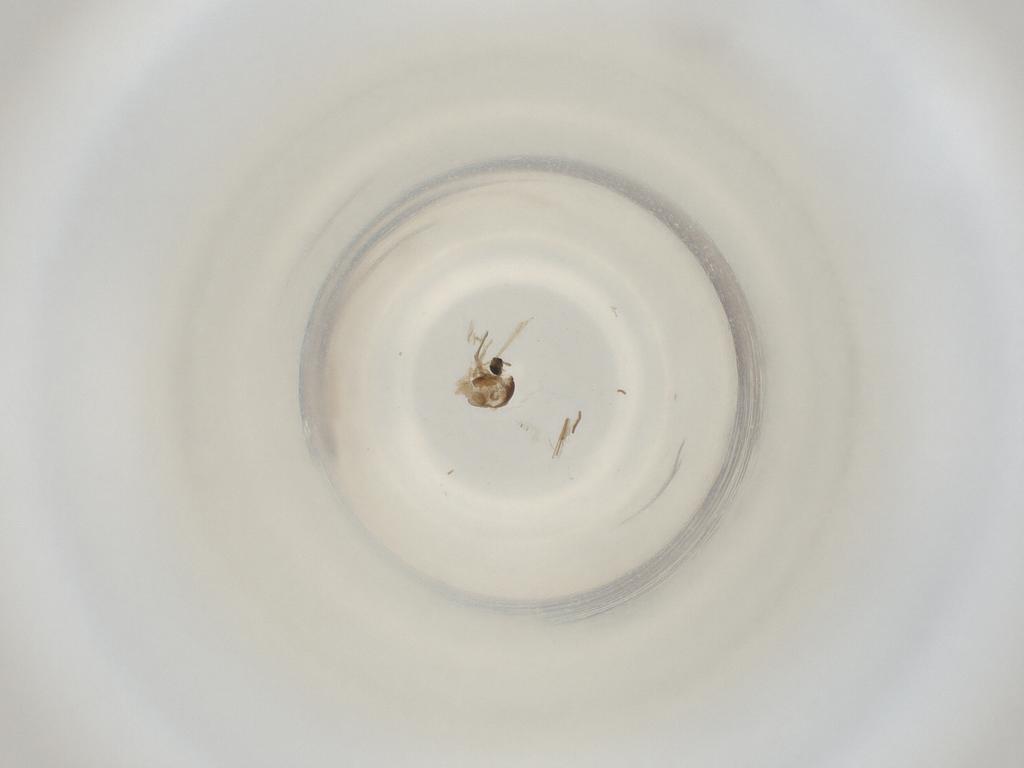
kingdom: Animalia
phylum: Arthropoda
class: Insecta
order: Diptera
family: Cecidomyiidae
